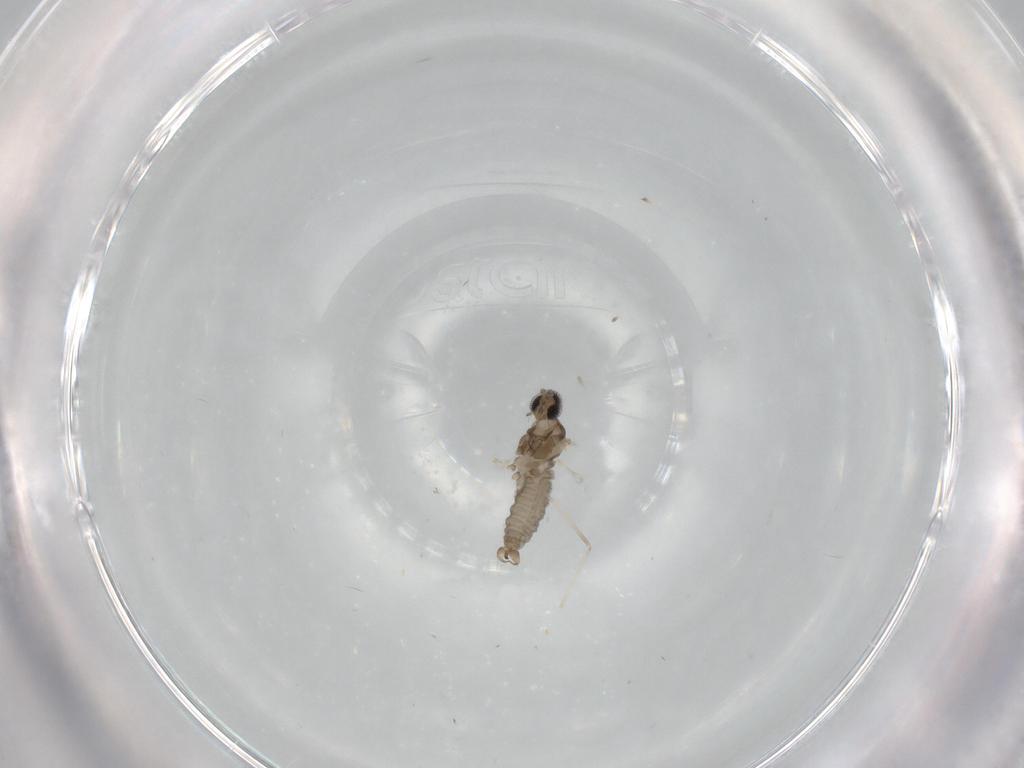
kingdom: Animalia
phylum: Arthropoda
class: Insecta
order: Diptera
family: Cecidomyiidae
